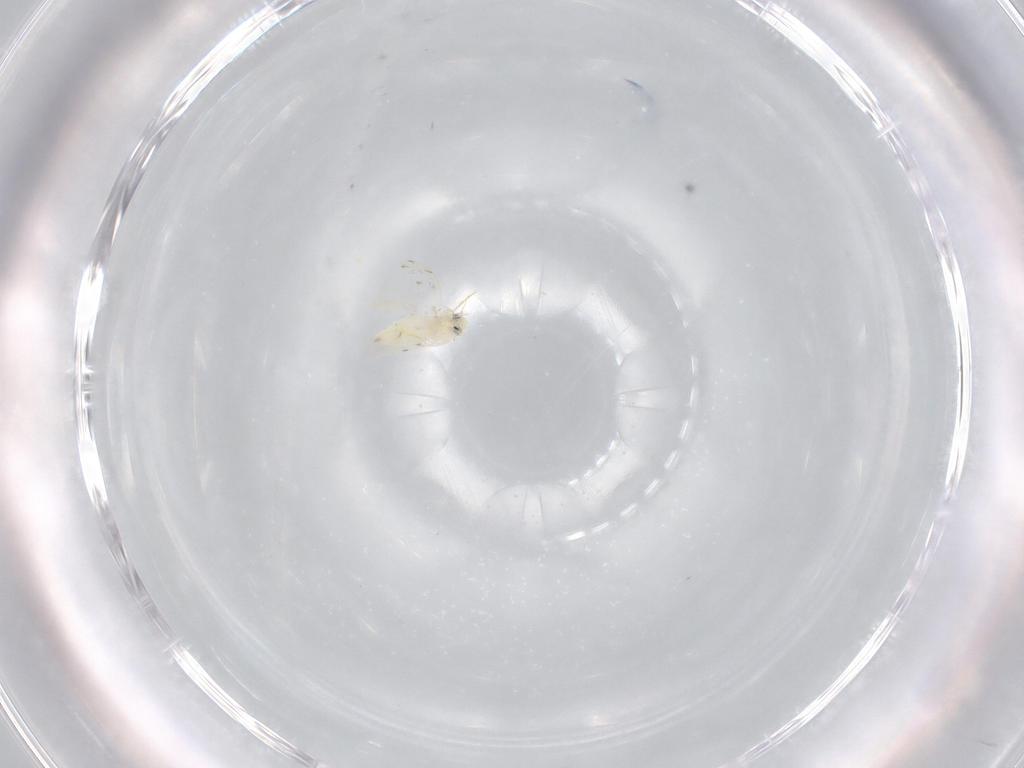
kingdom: Animalia
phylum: Arthropoda
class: Insecta
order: Hemiptera
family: Aleyrodidae
